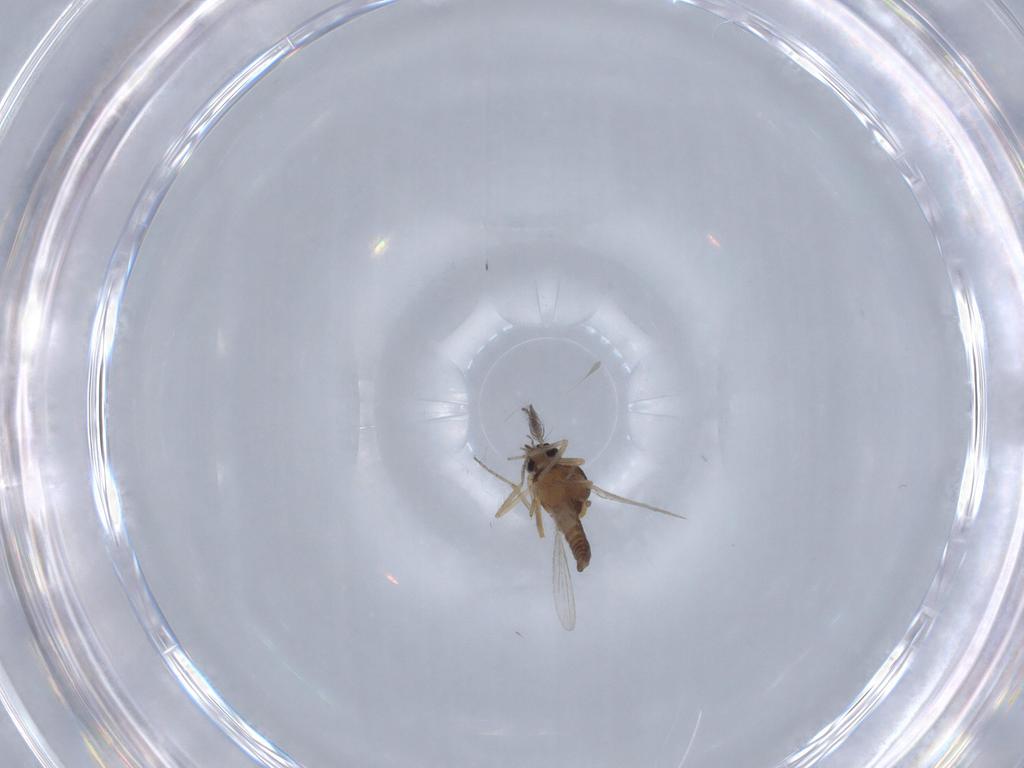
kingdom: Animalia
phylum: Arthropoda
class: Insecta
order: Diptera
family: Ceratopogonidae
